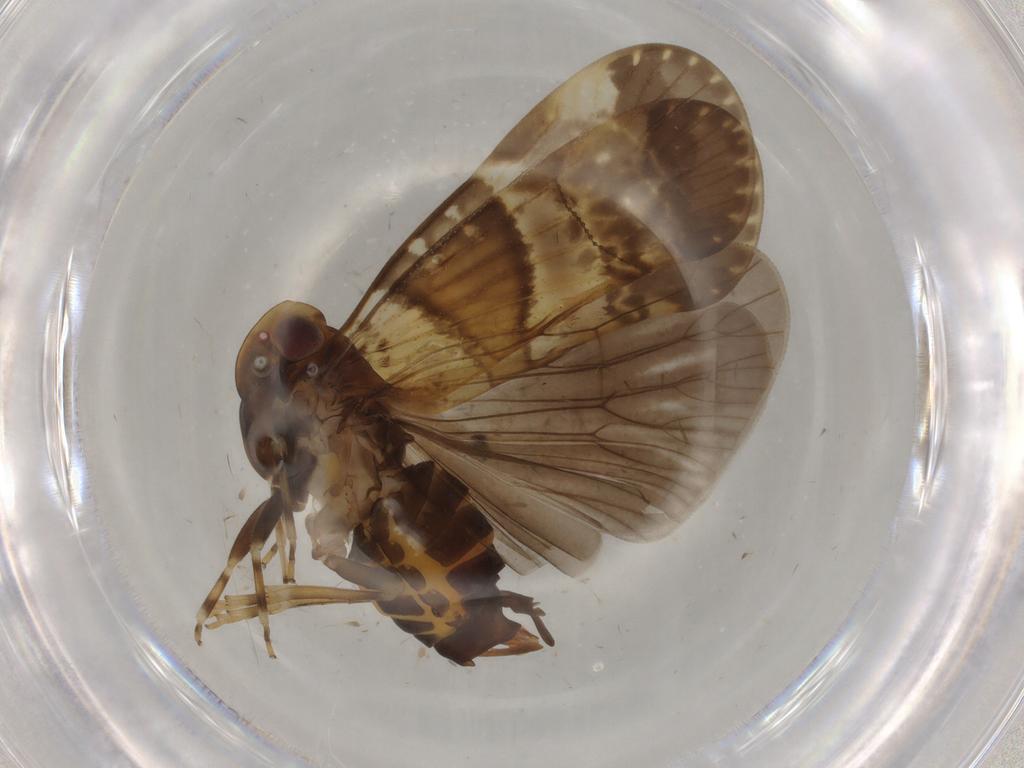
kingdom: Animalia
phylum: Arthropoda
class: Insecta
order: Hemiptera
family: Cixiidae
